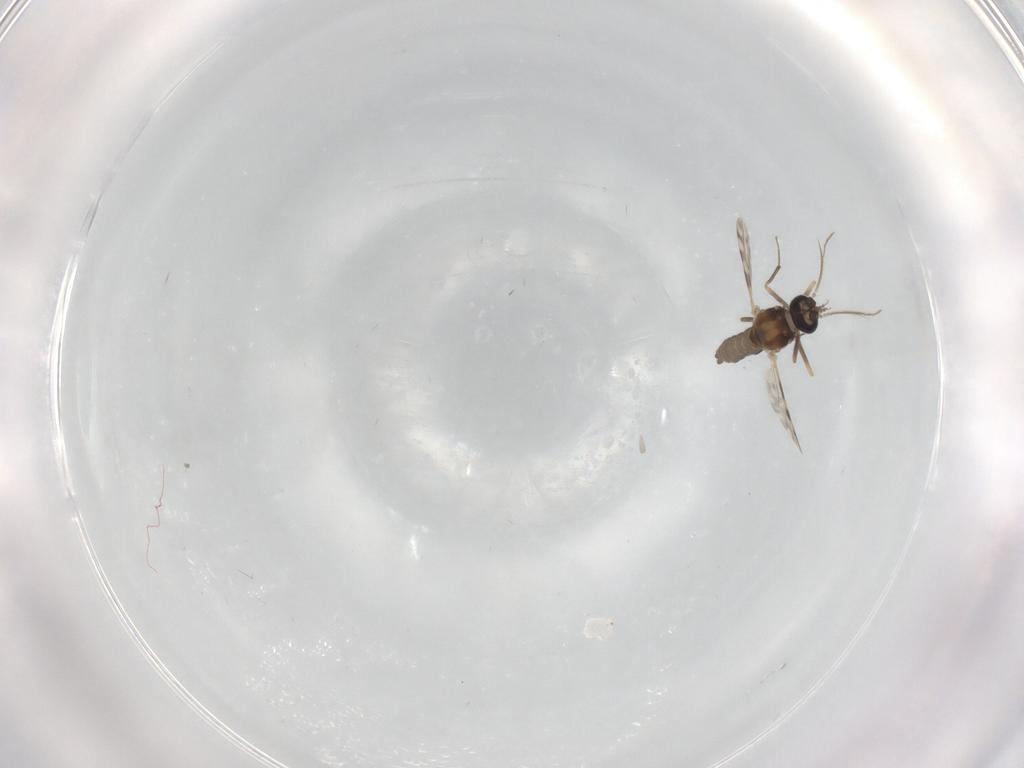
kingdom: Animalia
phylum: Arthropoda
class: Insecta
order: Diptera
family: Ceratopogonidae
